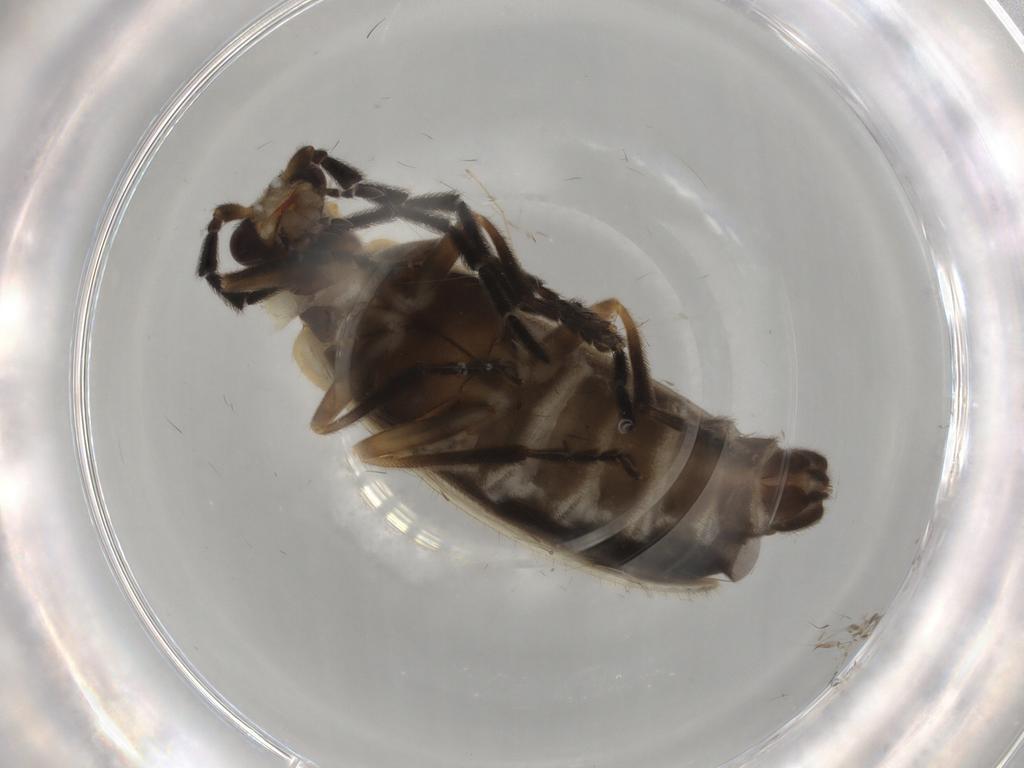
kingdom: Animalia
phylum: Arthropoda
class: Insecta
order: Coleoptera
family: Cantharidae
